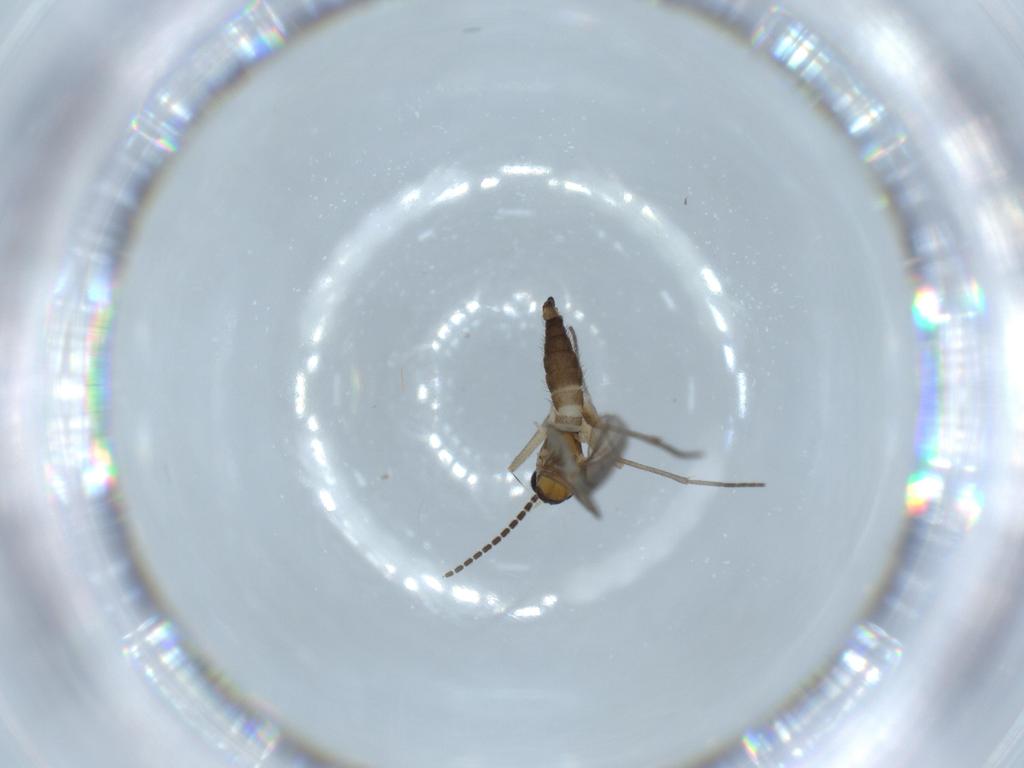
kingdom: Animalia
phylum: Arthropoda
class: Insecta
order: Diptera
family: Sciaridae
